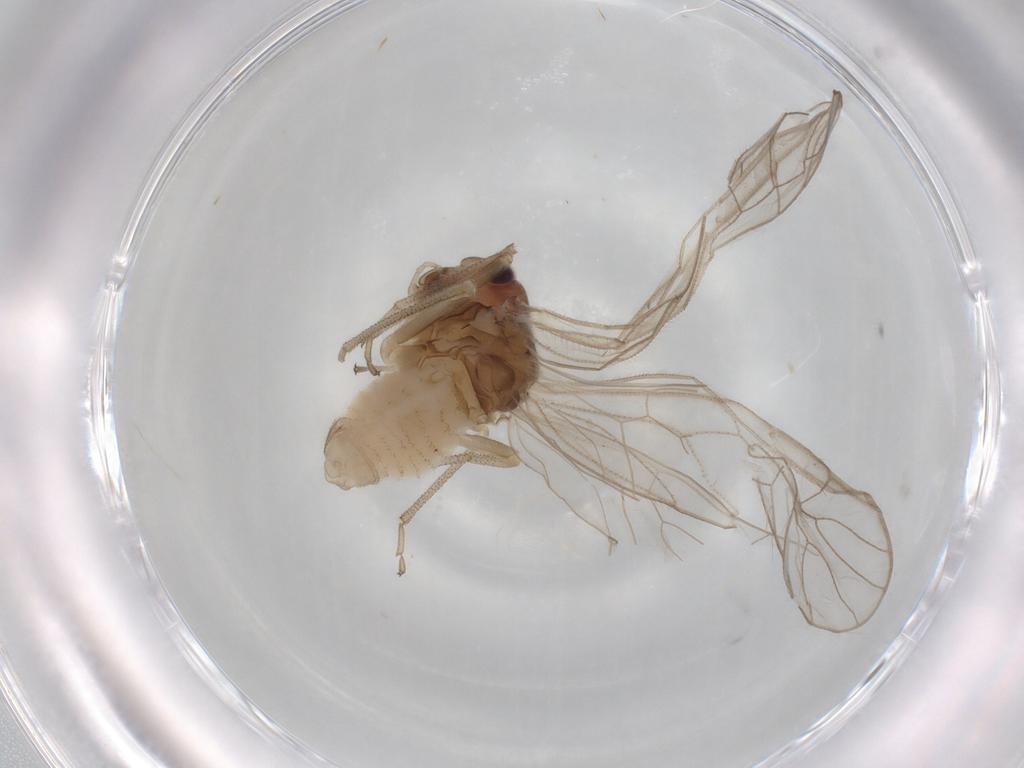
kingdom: Animalia
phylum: Arthropoda
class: Insecta
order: Psocodea
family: Stenopsocidae
